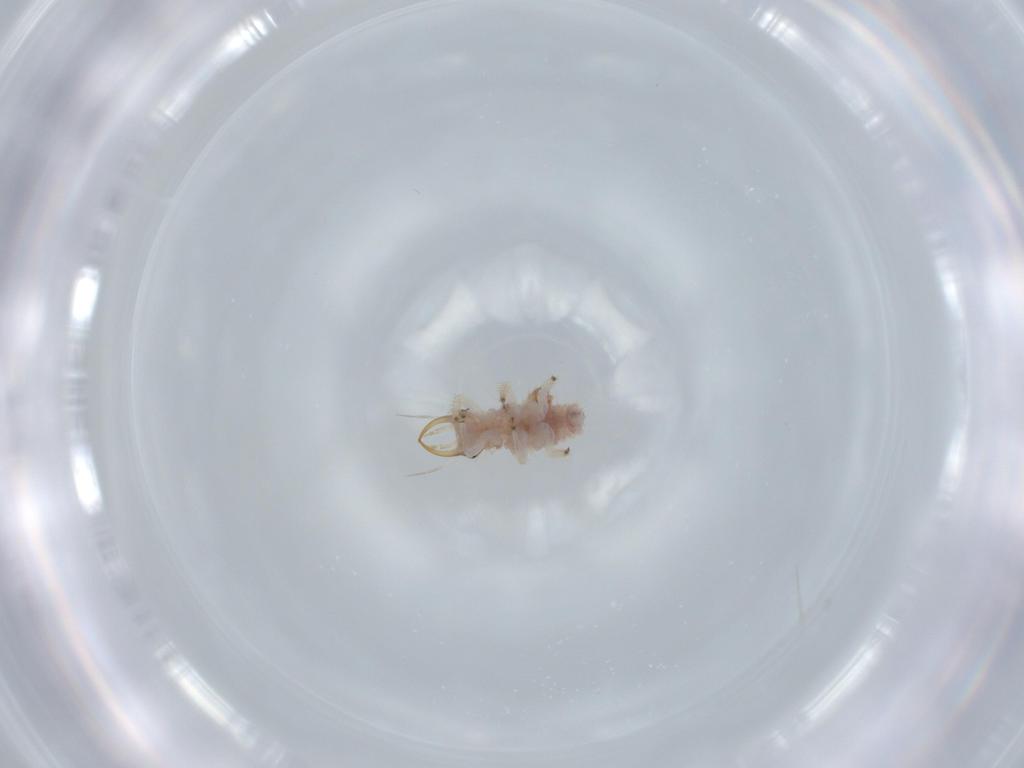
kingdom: Animalia
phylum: Arthropoda
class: Insecta
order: Neuroptera
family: Chrysopidae
